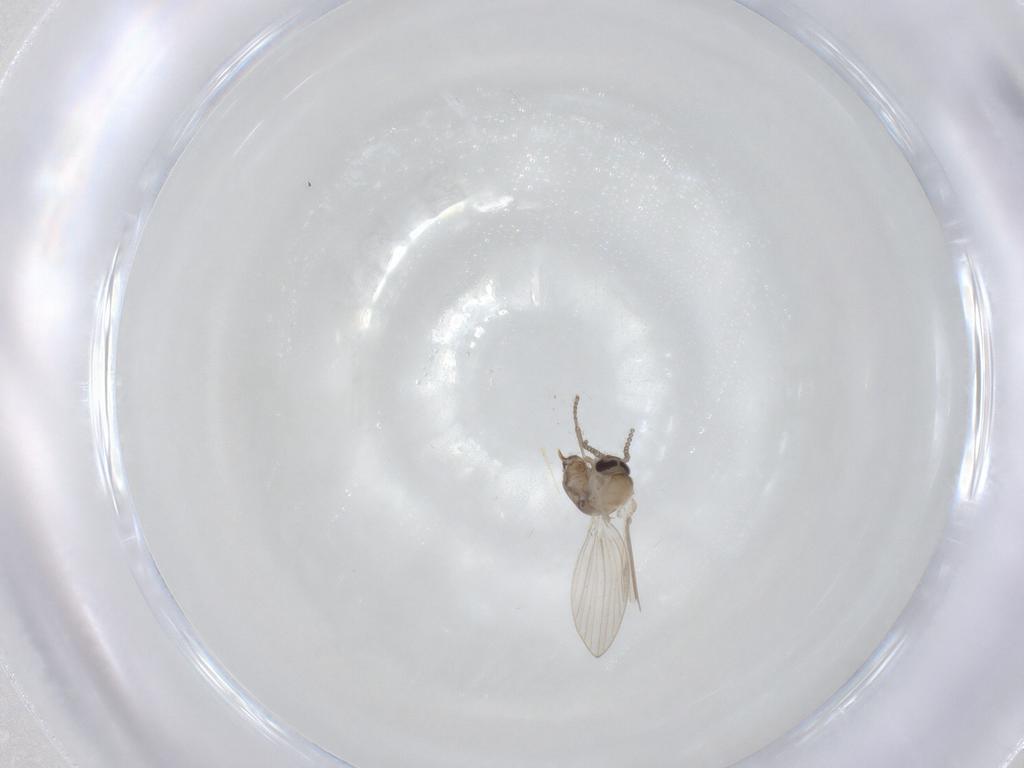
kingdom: Animalia
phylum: Arthropoda
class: Insecta
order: Diptera
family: Psychodidae
